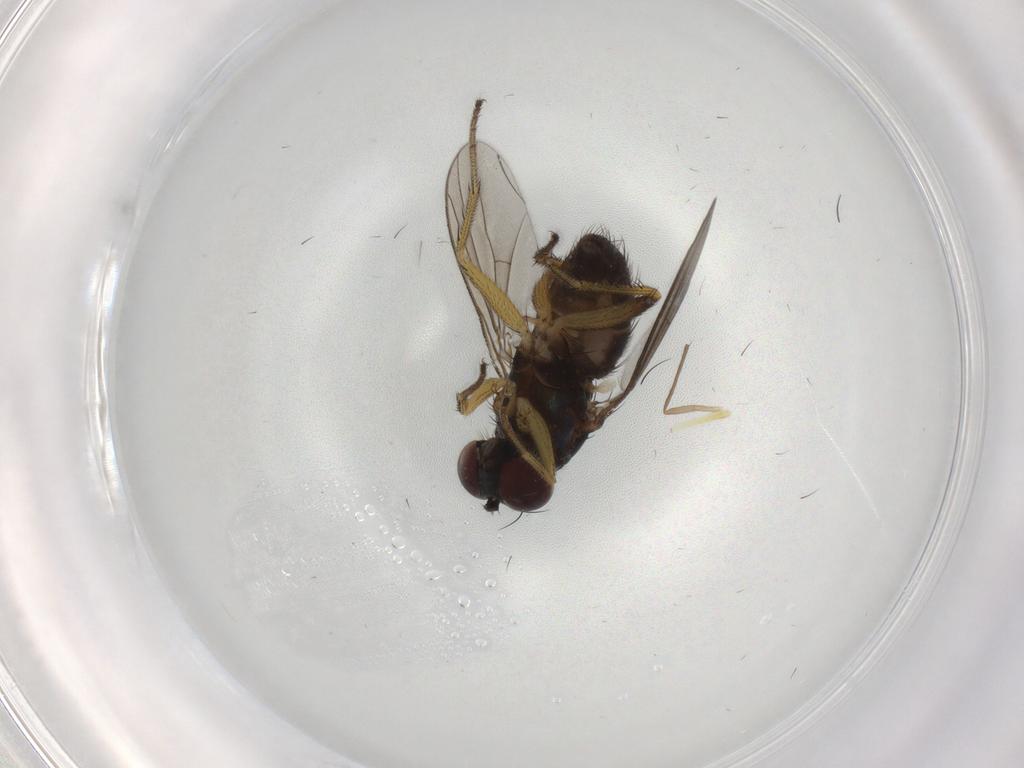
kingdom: Animalia
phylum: Arthropoda
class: Insecta
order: Diptera
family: Dolichopodidae
